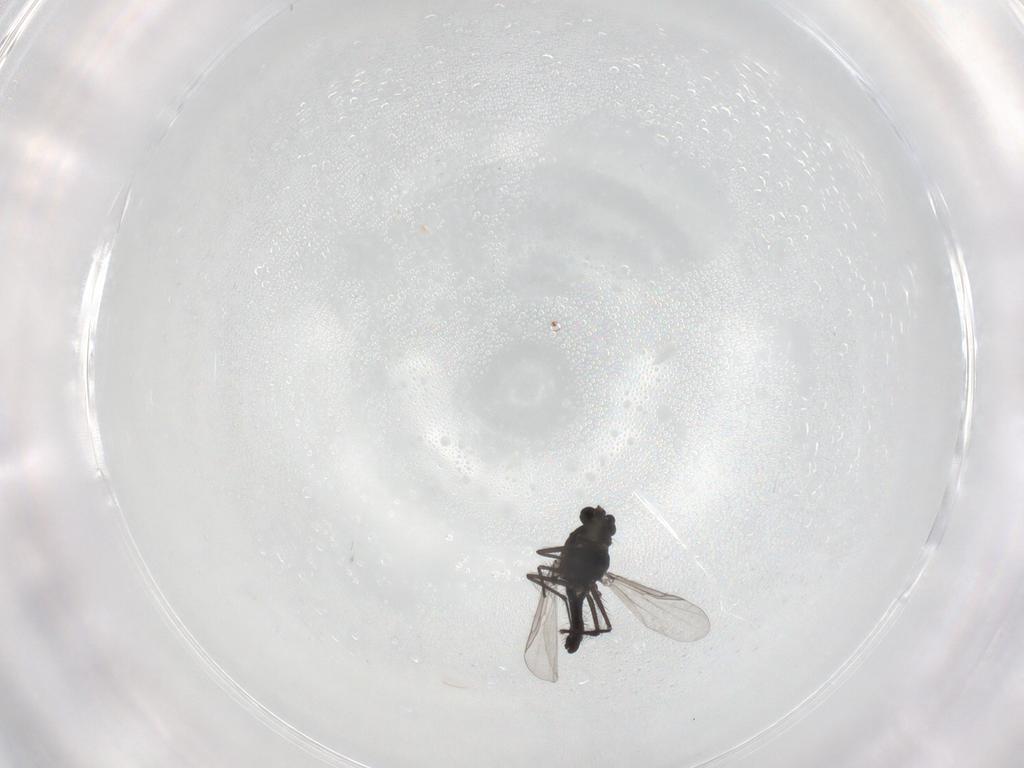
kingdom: Animalia
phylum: Arthropoda
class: Insecta
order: Diptera
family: Chironomidae
